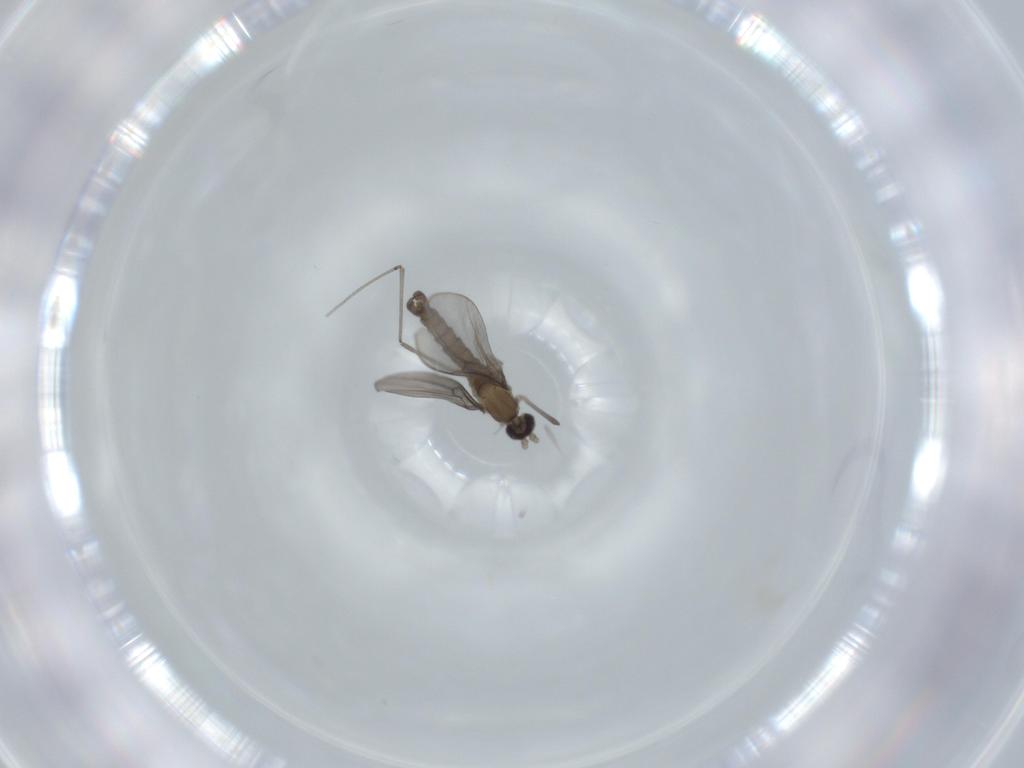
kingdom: Animalia
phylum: Arthropoda
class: Insecta
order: Diptera
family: Cecidomyiidae
